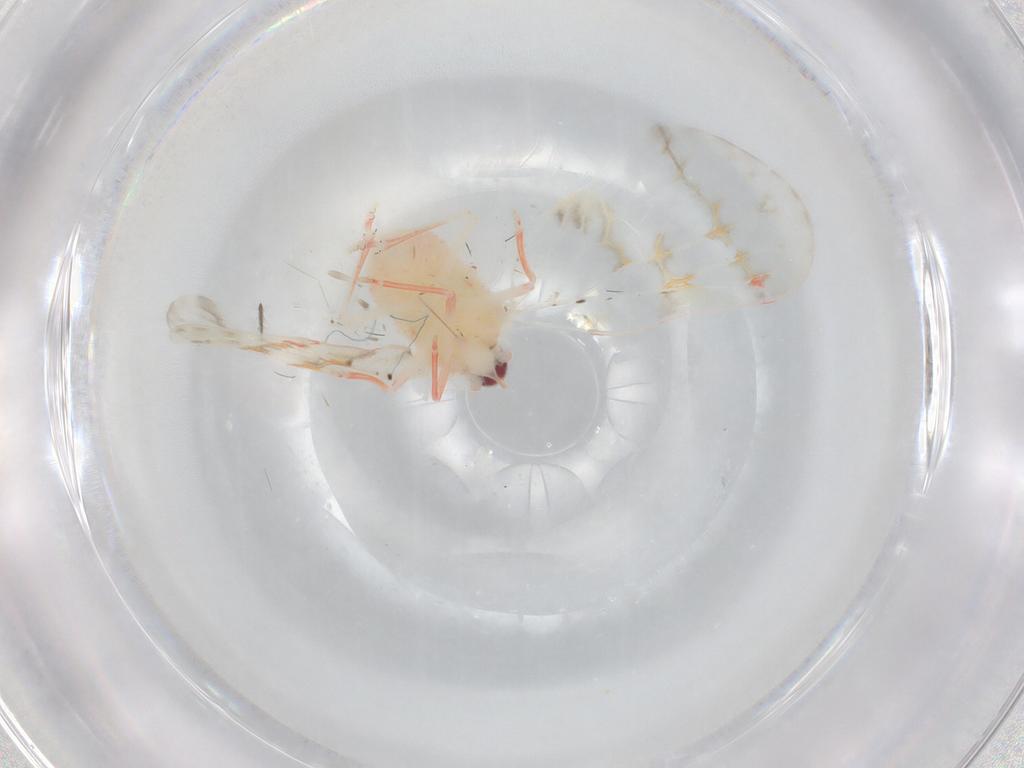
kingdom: Animalia
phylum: Arthropoda
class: Insecta
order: Hemiptera
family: Derbidae
